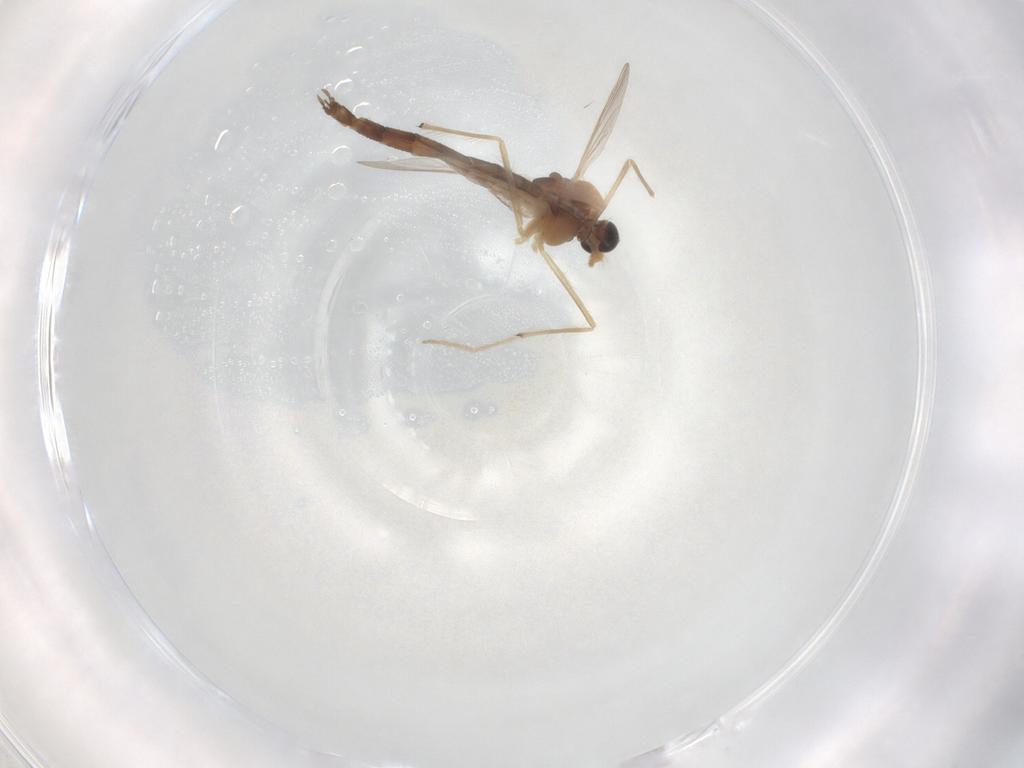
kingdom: Animalia
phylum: Arthropoda
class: Insecta
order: Diptera
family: Chironomidae
